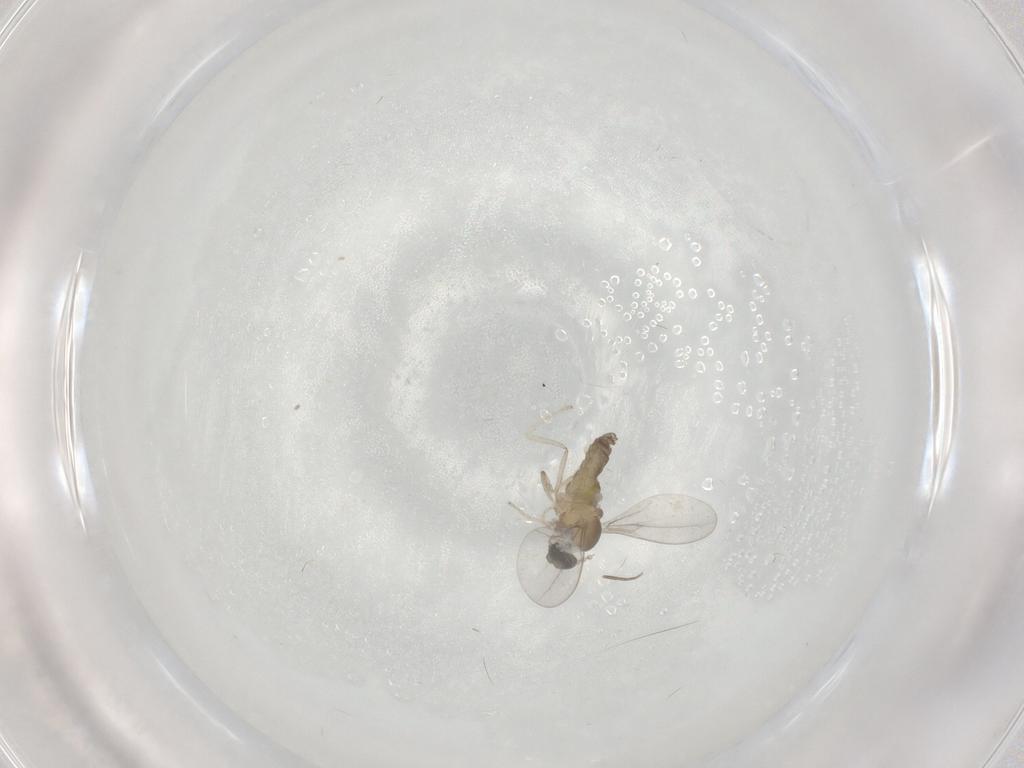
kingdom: Animalia
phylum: Arthropoda
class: Insecta
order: Diptera
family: Cecidomyiidae
